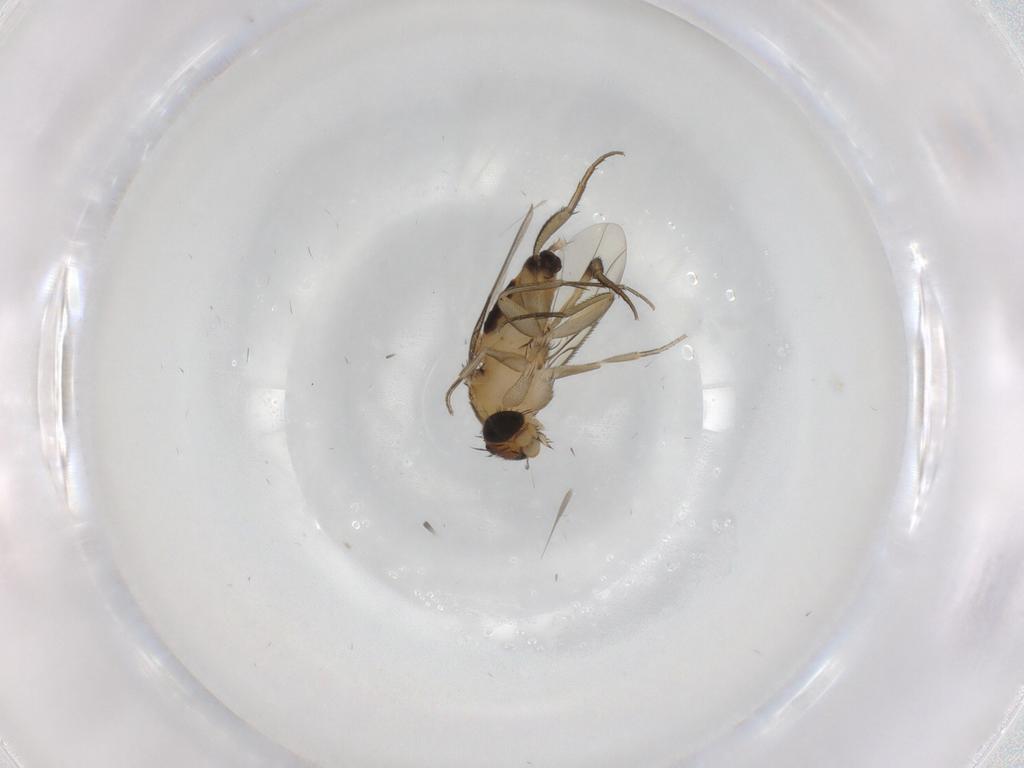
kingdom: Animalia
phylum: Arthropoda
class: Insecta
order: Diptera
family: Phoridae
